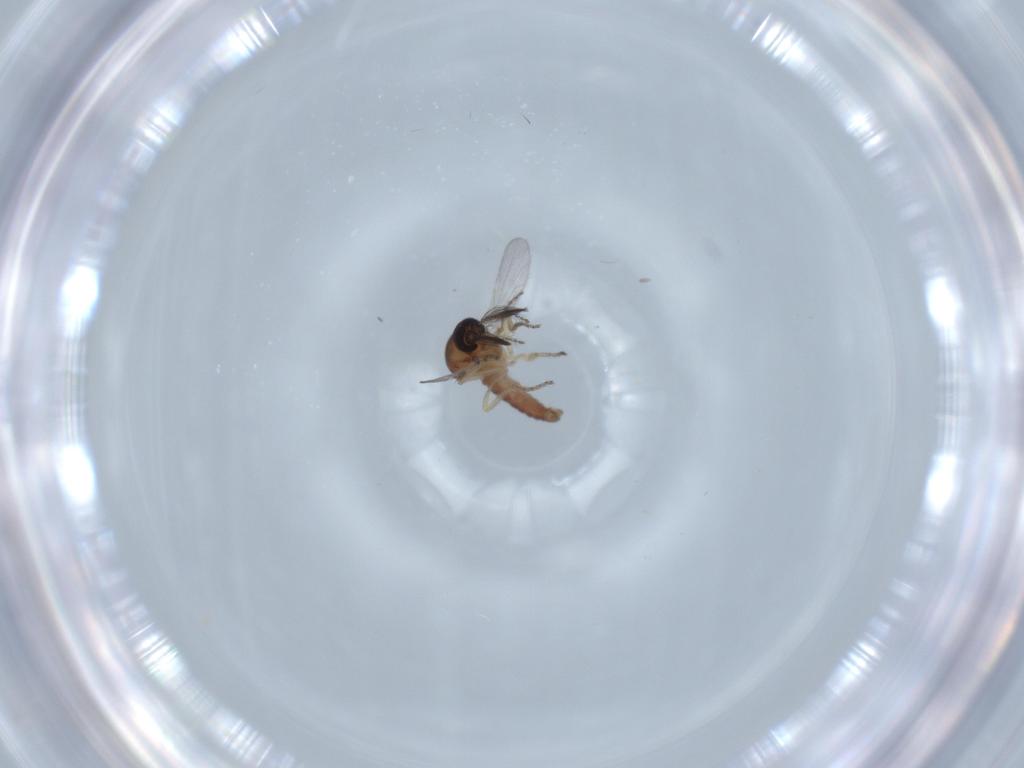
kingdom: Animalia
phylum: Arthropoda
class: Insecta
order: Diptera
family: Ceratopogonidae
